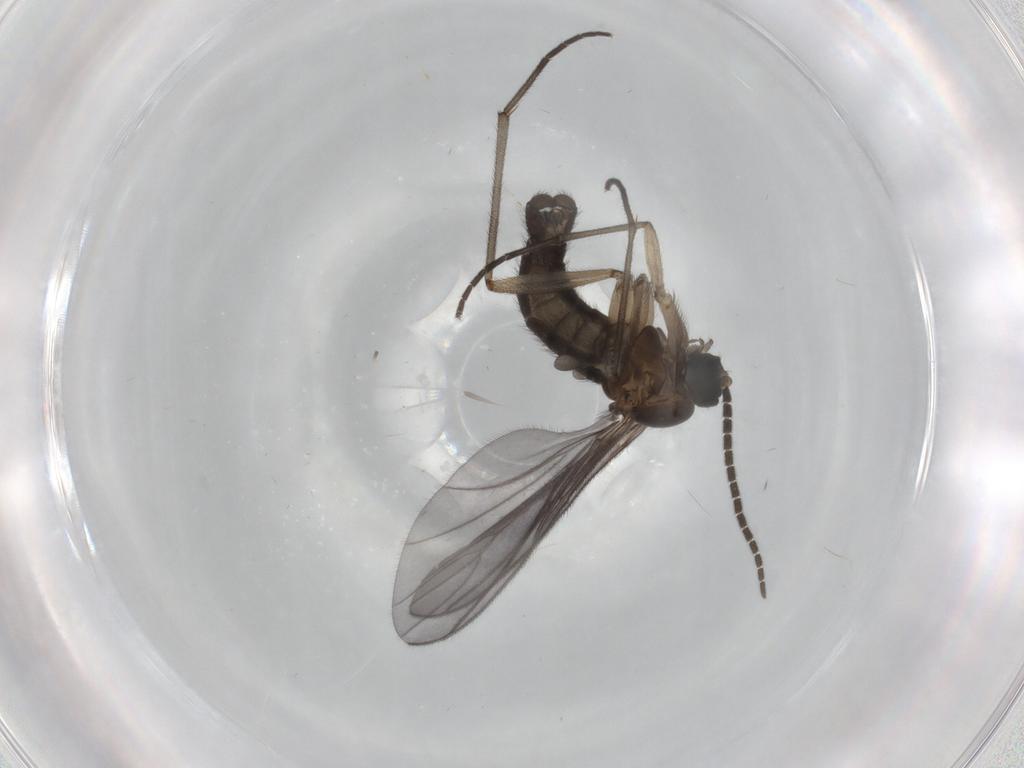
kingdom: Animalia
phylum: Arthropoda
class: Insecta
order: Diptera
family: Sciaridae
